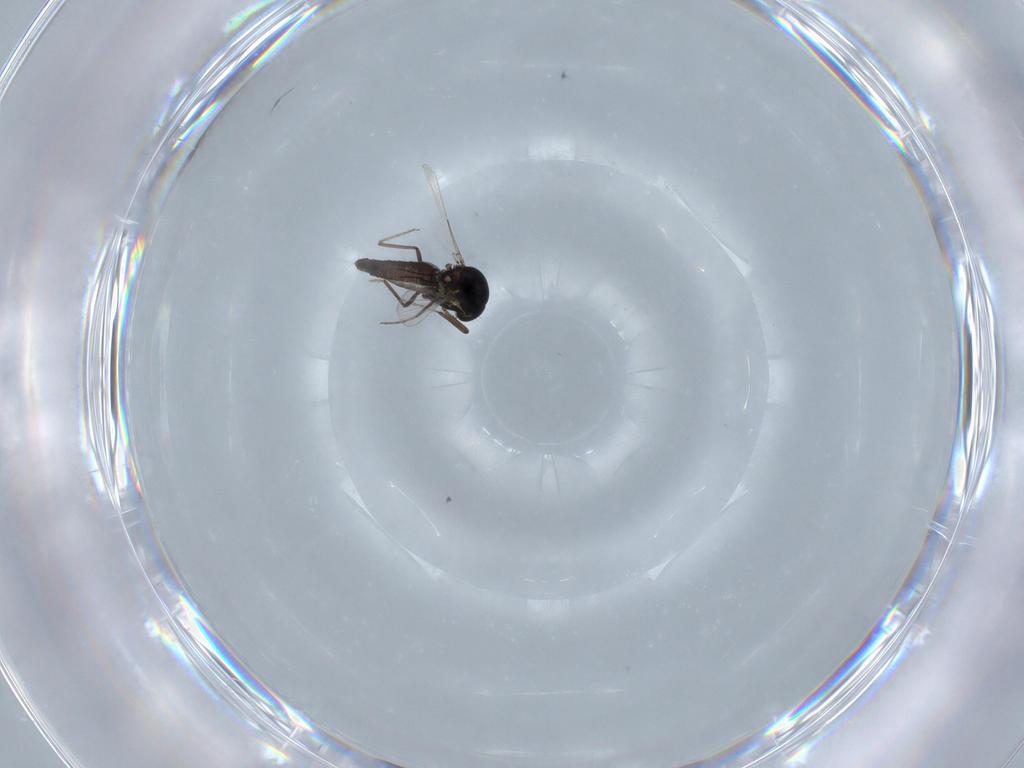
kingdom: Animalia
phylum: Arthropoda
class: Insecta
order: Diptera
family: Ceratopogonidae
